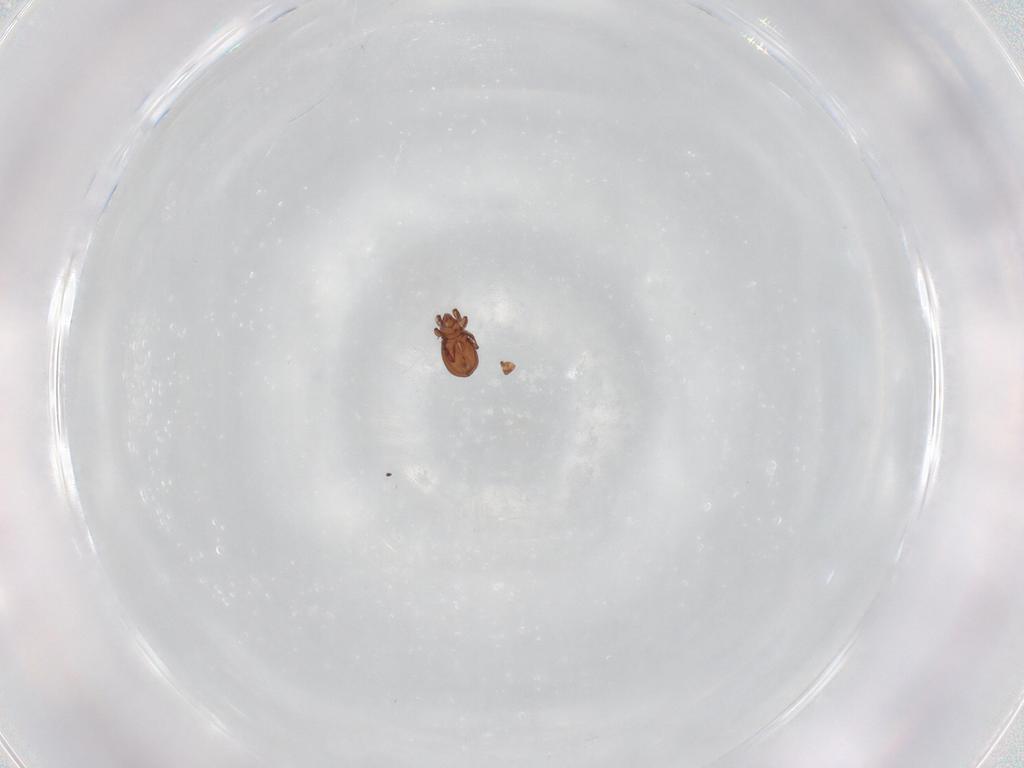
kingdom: Animalia
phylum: Arthropoda
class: Arachnida
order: Sarcoptiformes
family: Eremaeidae
